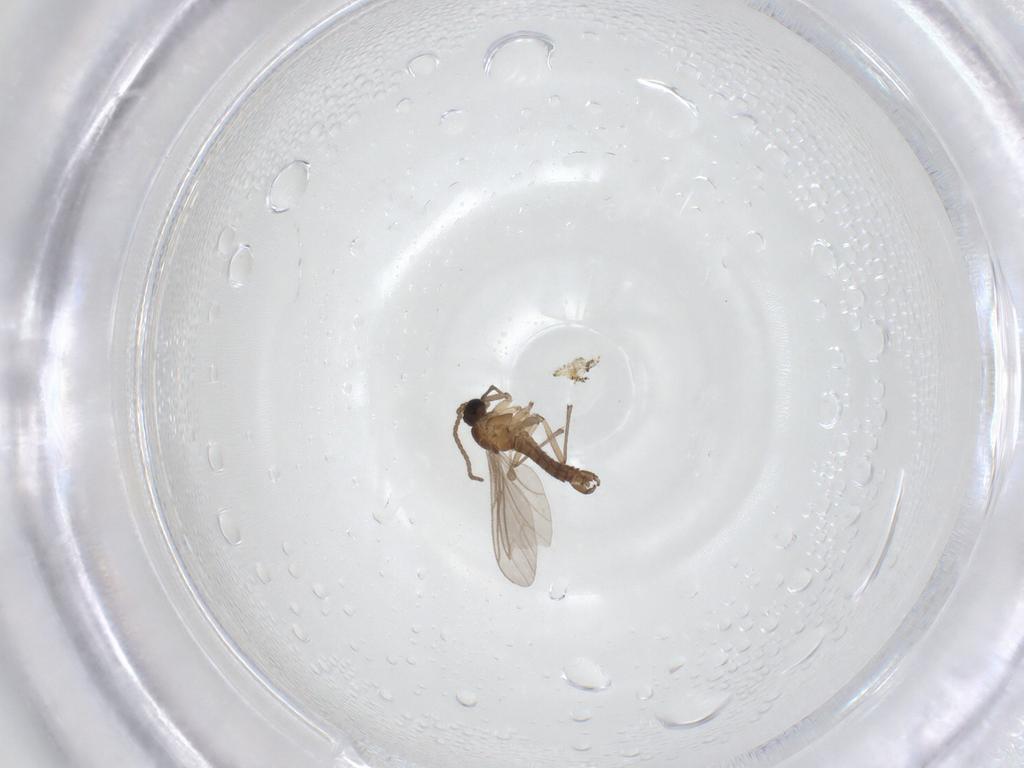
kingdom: Animalia
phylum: Arthropoda
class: Insecta
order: Diptera
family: Sciaridae
